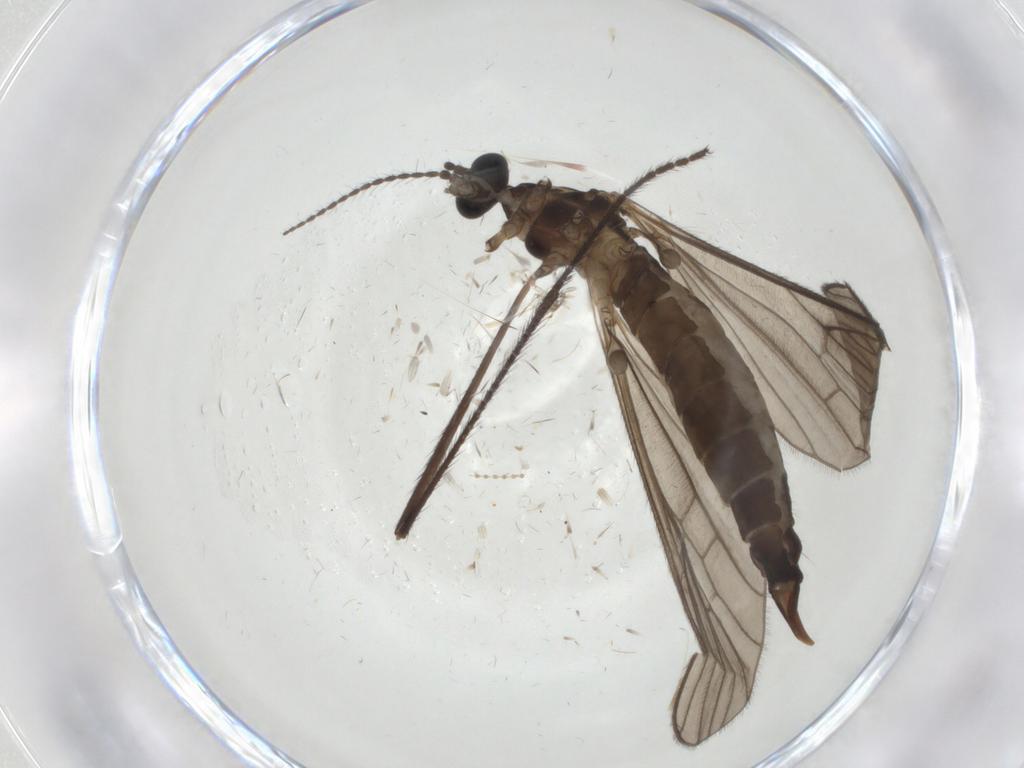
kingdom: Animalia
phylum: Arthropoda
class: Insecta
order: Diptera
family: Limoniidae
